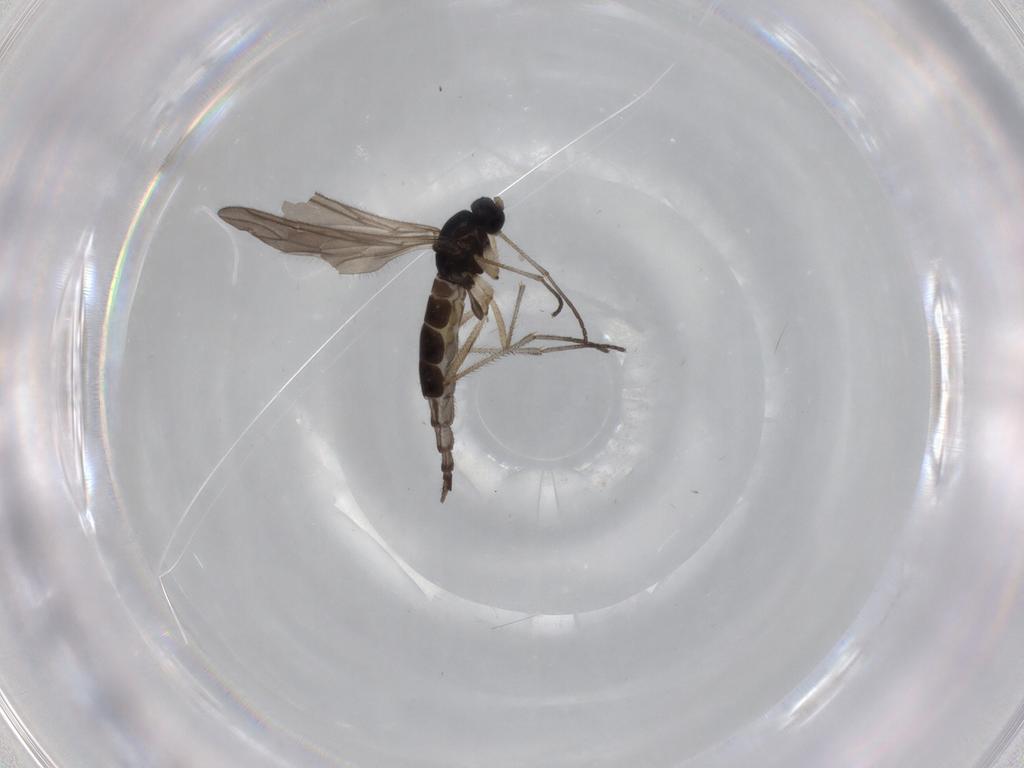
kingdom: Animalia
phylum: Arthropoda
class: Insecta
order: Diptera
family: Sciaridae
